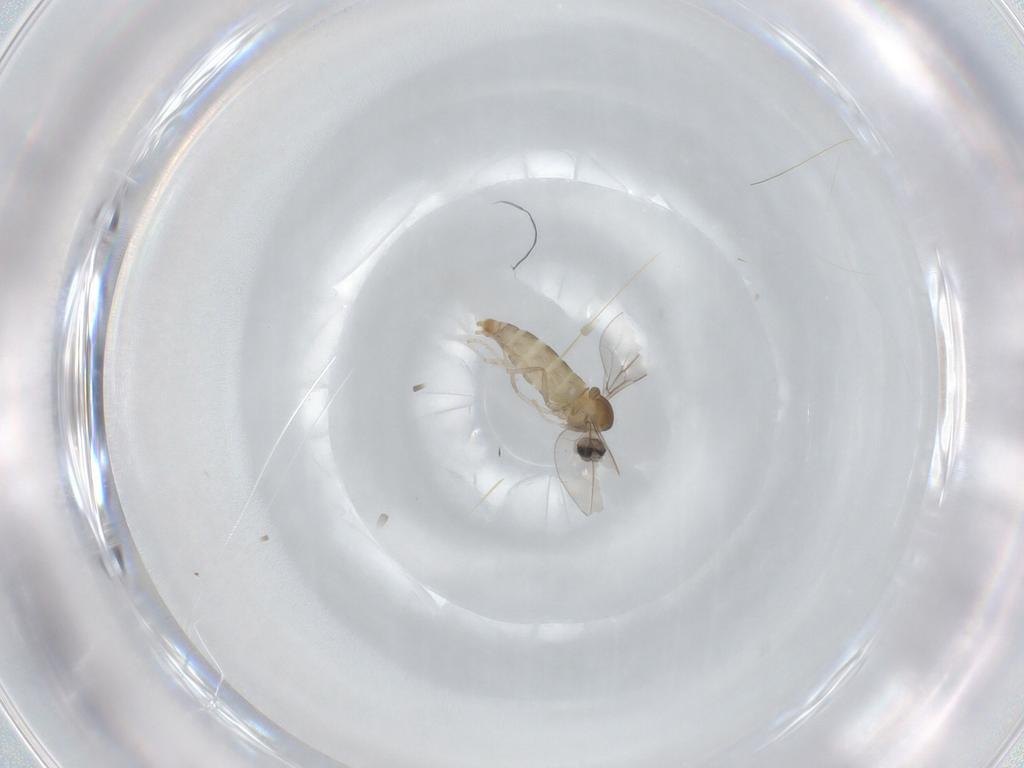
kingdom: Animalia
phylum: Arthropoda
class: Insecta
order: Diptera
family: Cecidomyiidae
